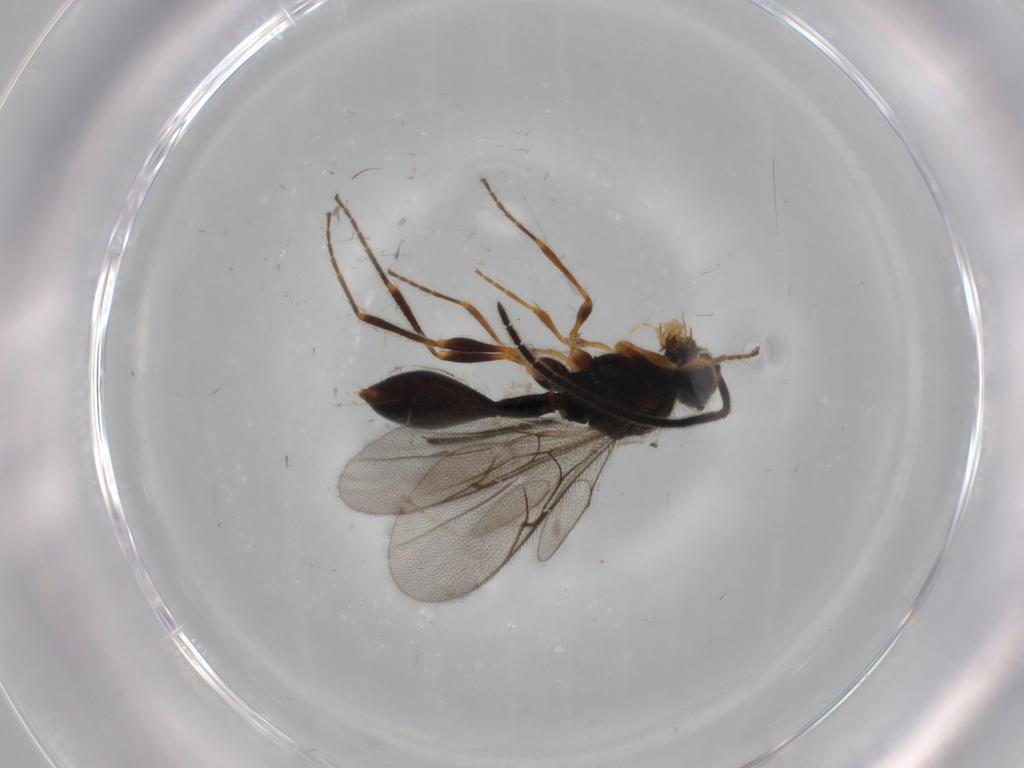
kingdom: Animalia
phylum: Arthropoda
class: Insecta
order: Hymenoptera
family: Diapriidae
